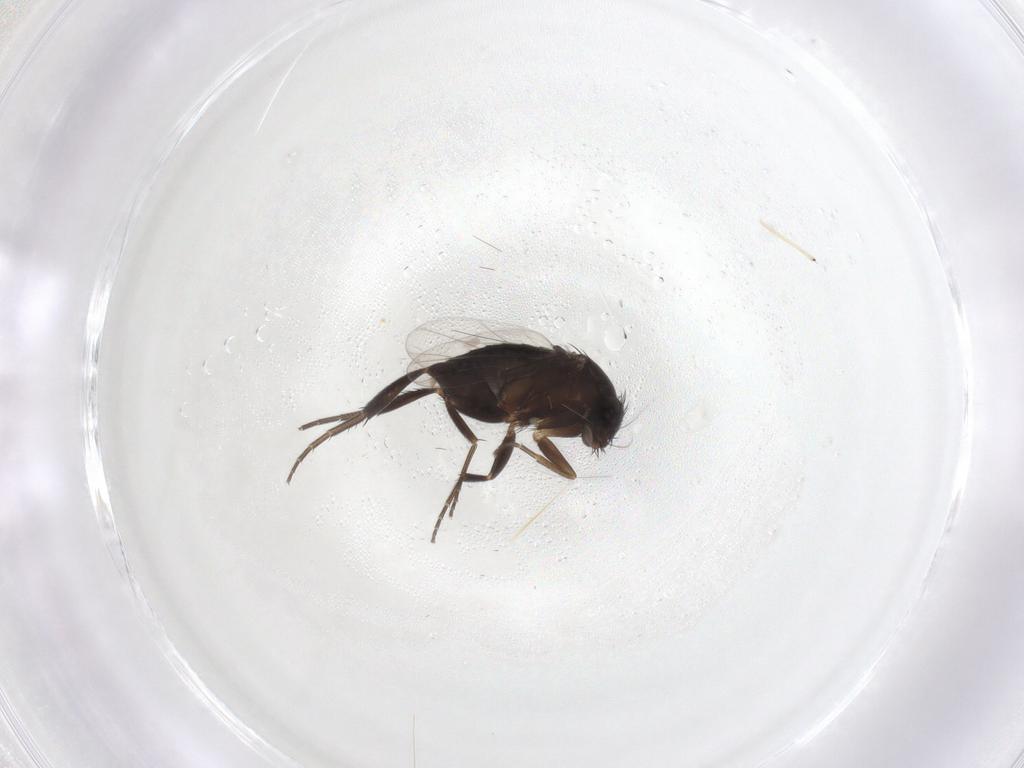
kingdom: Animalia
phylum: Arthropoda
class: Insecta
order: Diptera
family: Phoridae
